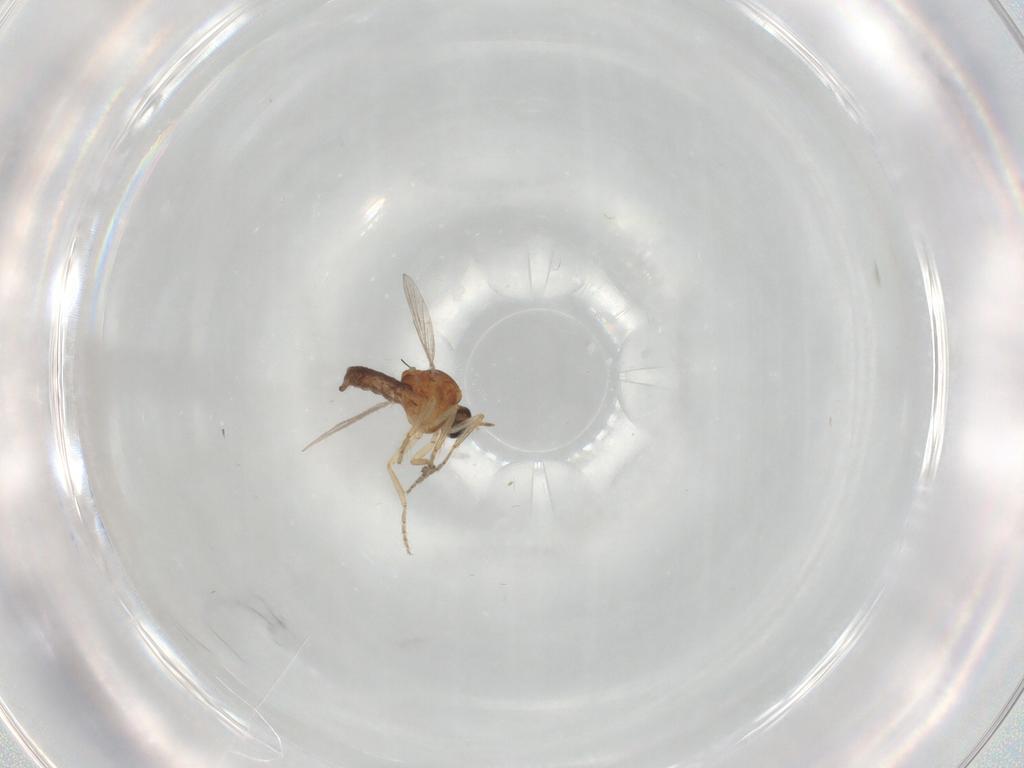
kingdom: Animalia
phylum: Arthropoda
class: Insecta
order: Diptera
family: Ceratopogonidae
